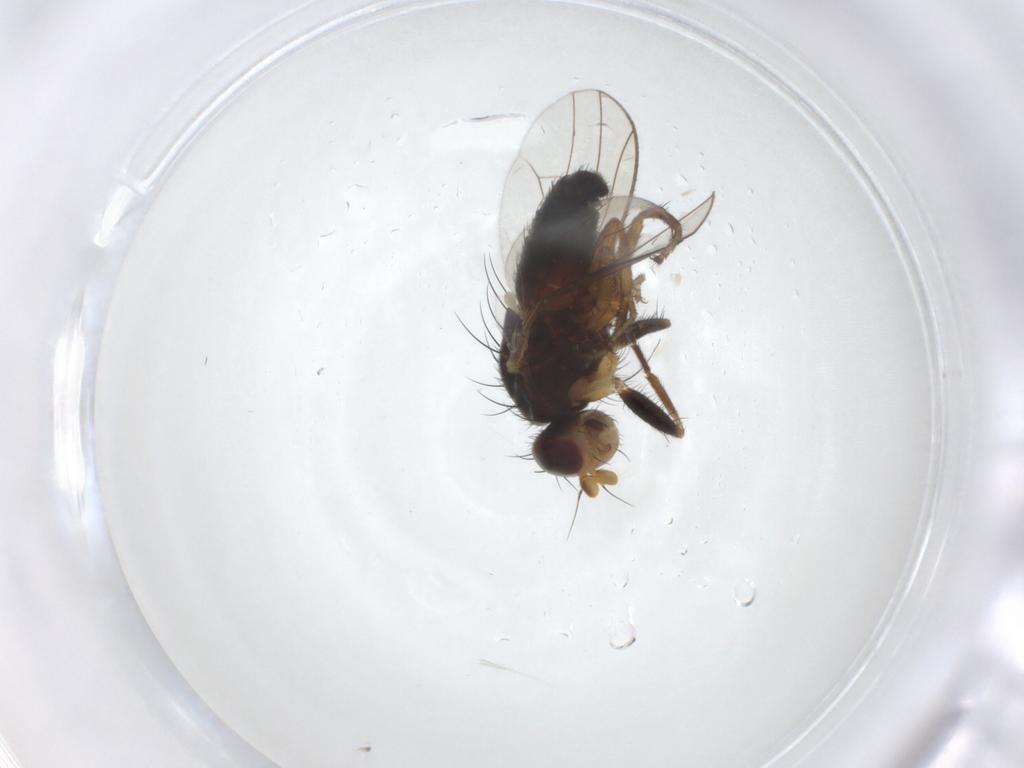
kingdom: Animalia
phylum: Arthropoda
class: Insecta
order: Diptera
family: Heleomyzidae
